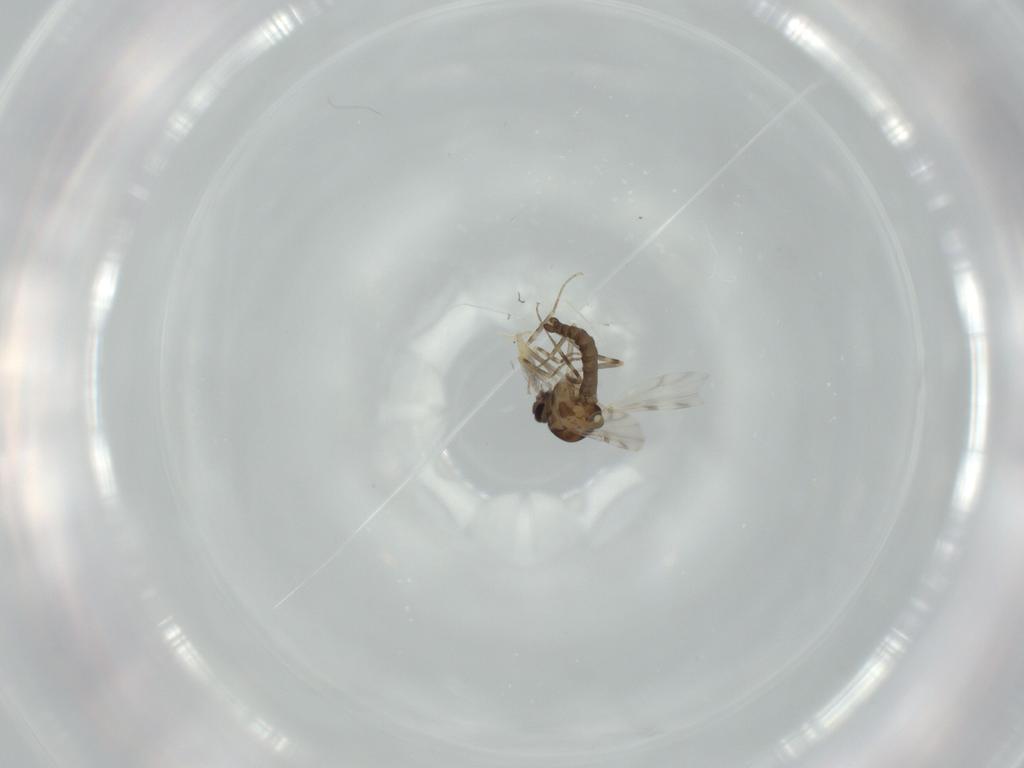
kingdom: Animalia
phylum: Arthropoda
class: Insecta
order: Diptera
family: Ceratopogonidae
